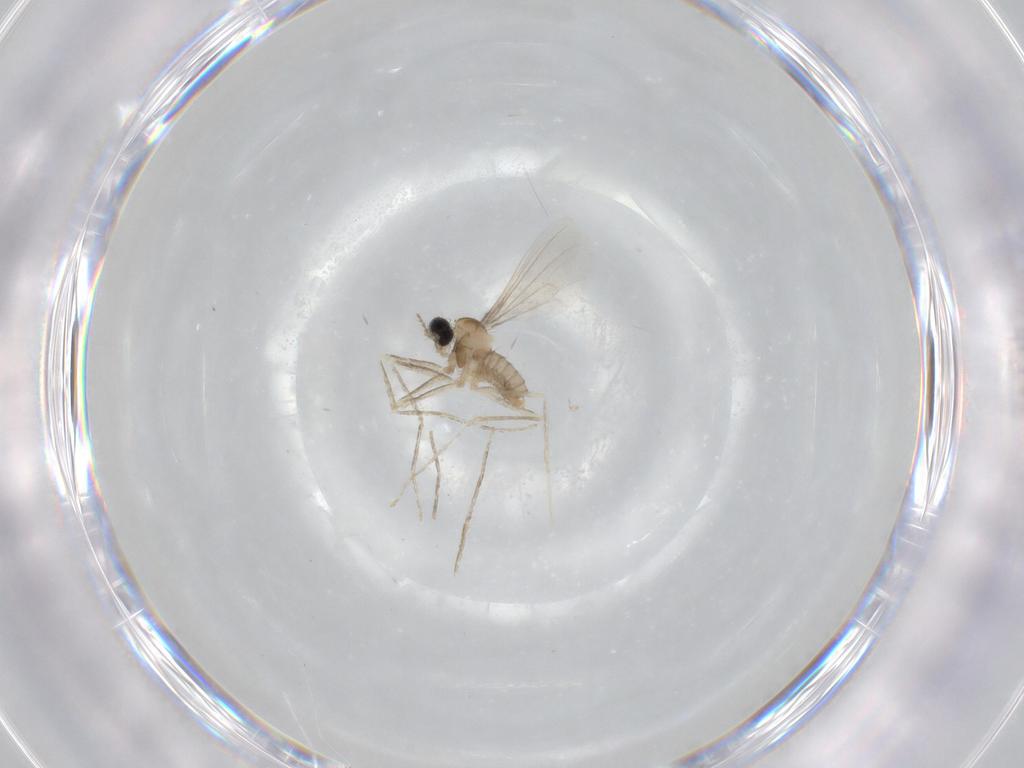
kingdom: Animalia
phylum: Arthropoda
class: Insecta
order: Diptera
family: Cecidomyiidae
